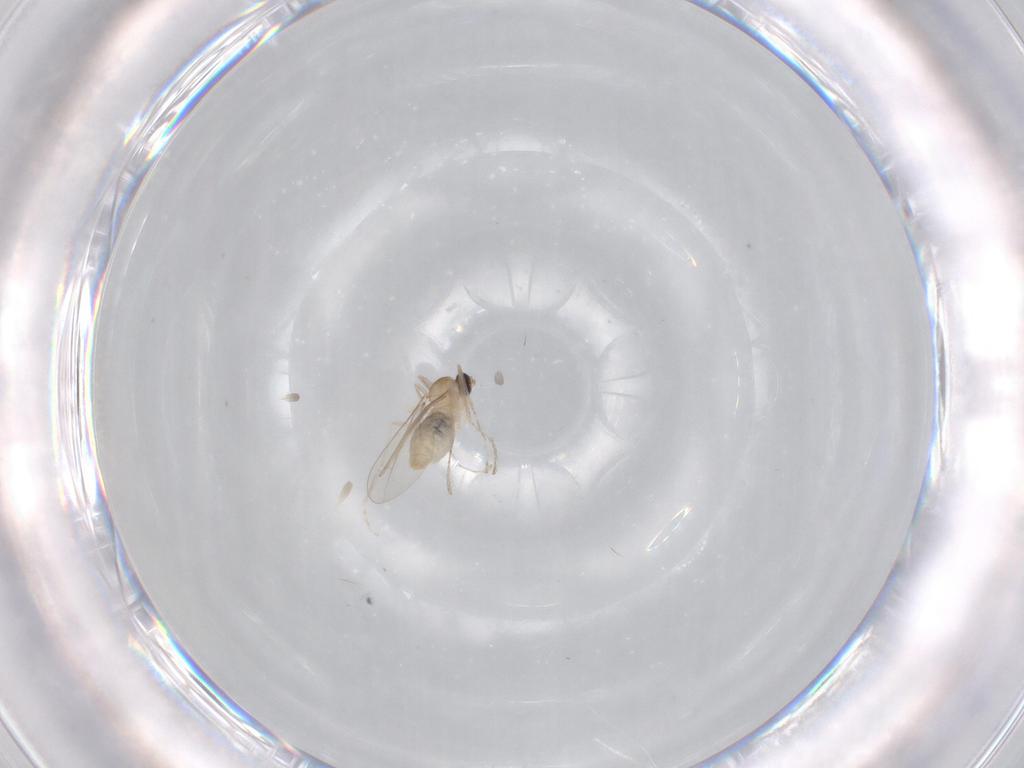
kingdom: Animalia
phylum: Arthropoda
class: Insecta
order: Diptera
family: Cecidomyiidae
